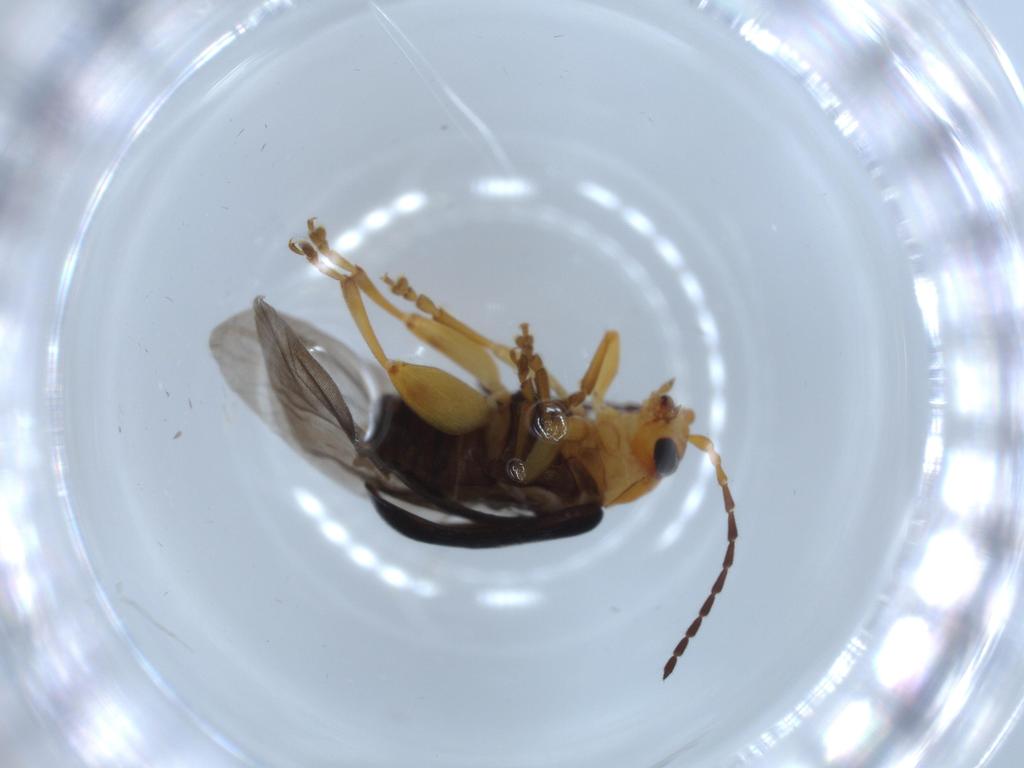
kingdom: Animalia
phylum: Arthropoda
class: Insecta
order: Coleoptera
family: Chrysomelidae
